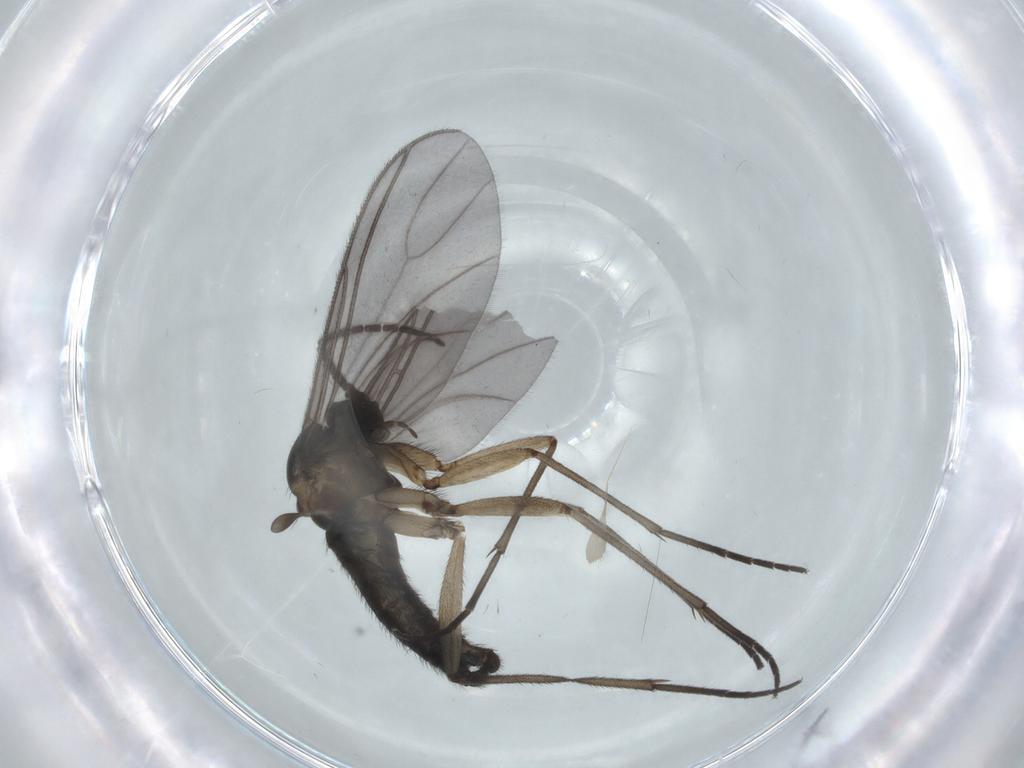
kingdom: Animalia
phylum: Arthropoda
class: Insecta
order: Diptera
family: Sciaridae
